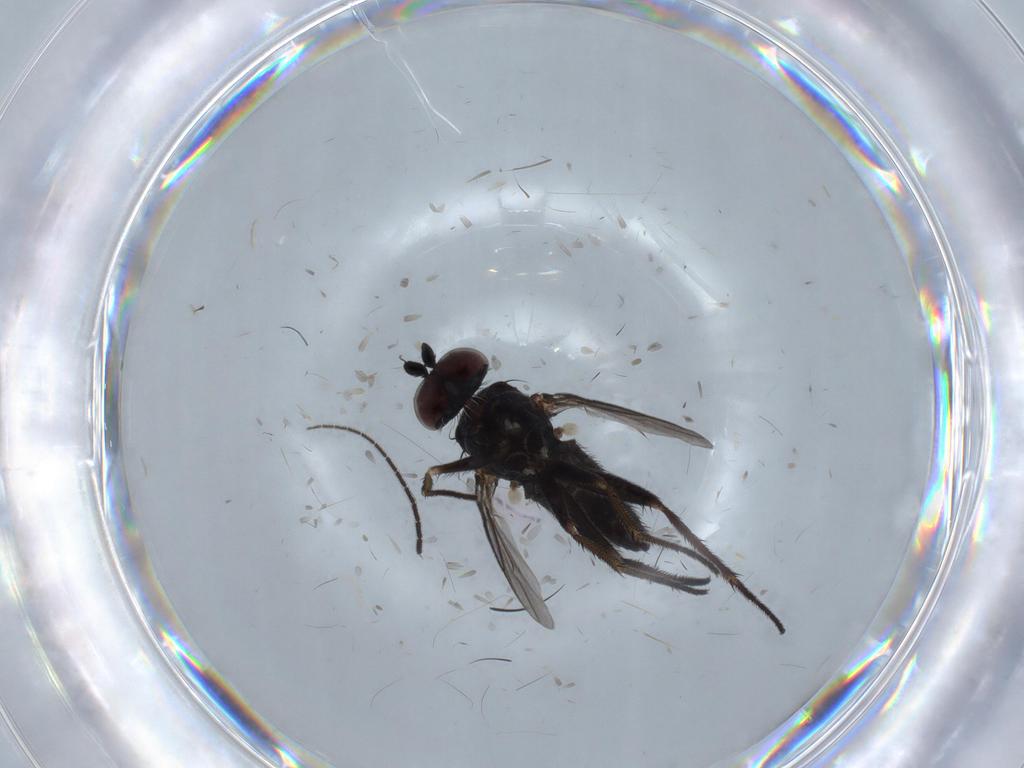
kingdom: Animalia
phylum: Arthropoda
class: Insecta
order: Diptera
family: Dolichopodidae
